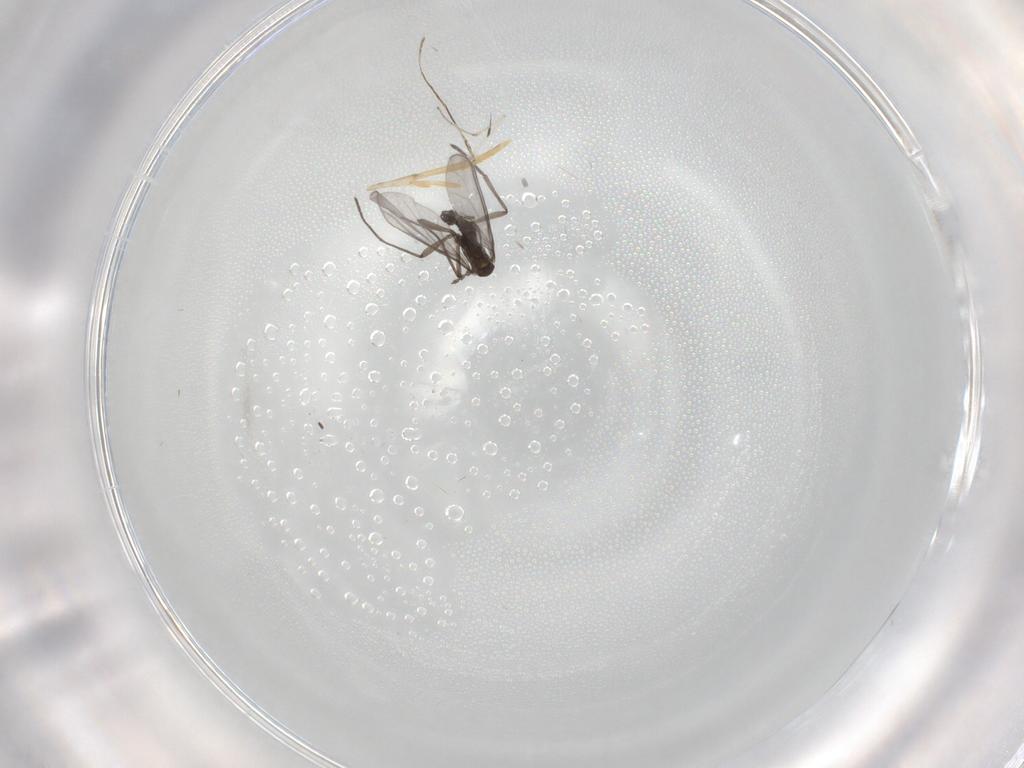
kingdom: Animalia
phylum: Arthropoda
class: Insecta
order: Diptera
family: Sciaridae
